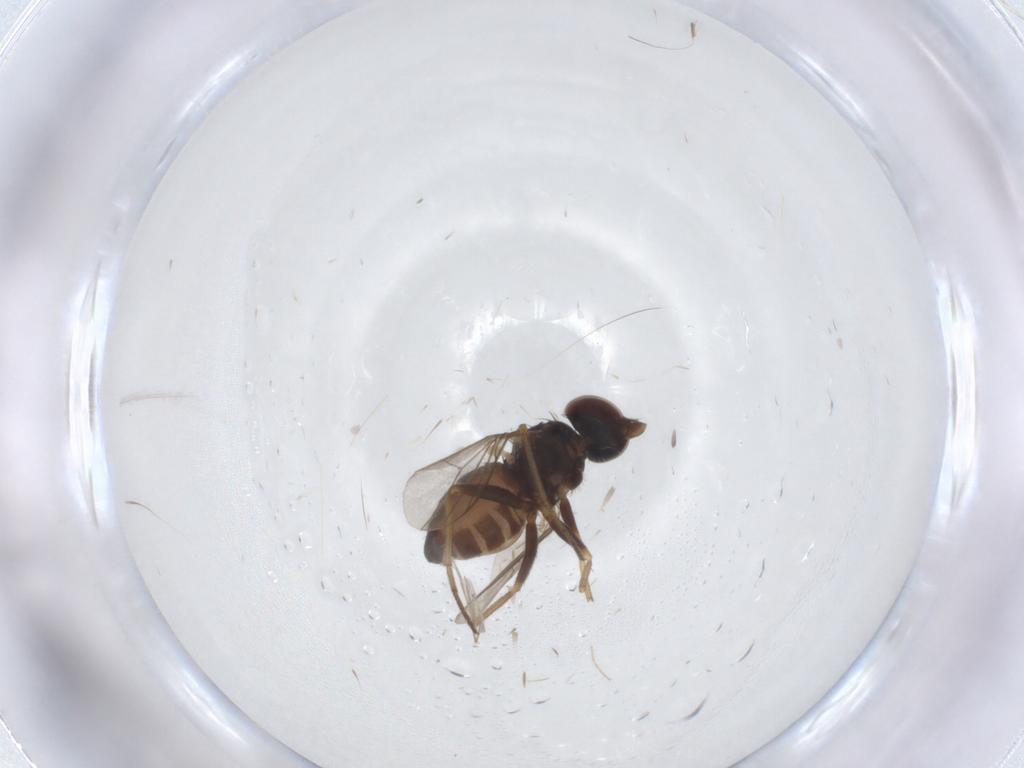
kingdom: Animalia
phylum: Arthropoda
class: Insecta
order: Diptera
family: Dolichopodidae
